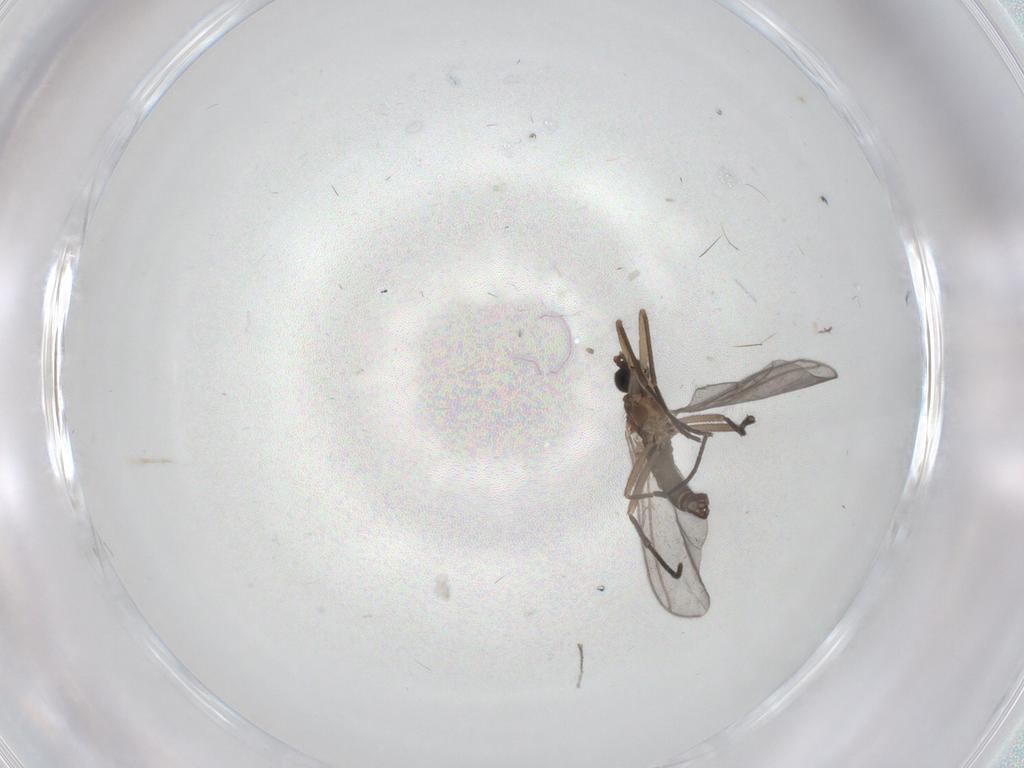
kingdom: Animalia
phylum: Arthropoda
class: Insecta
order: Diptera
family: Sciaridae
